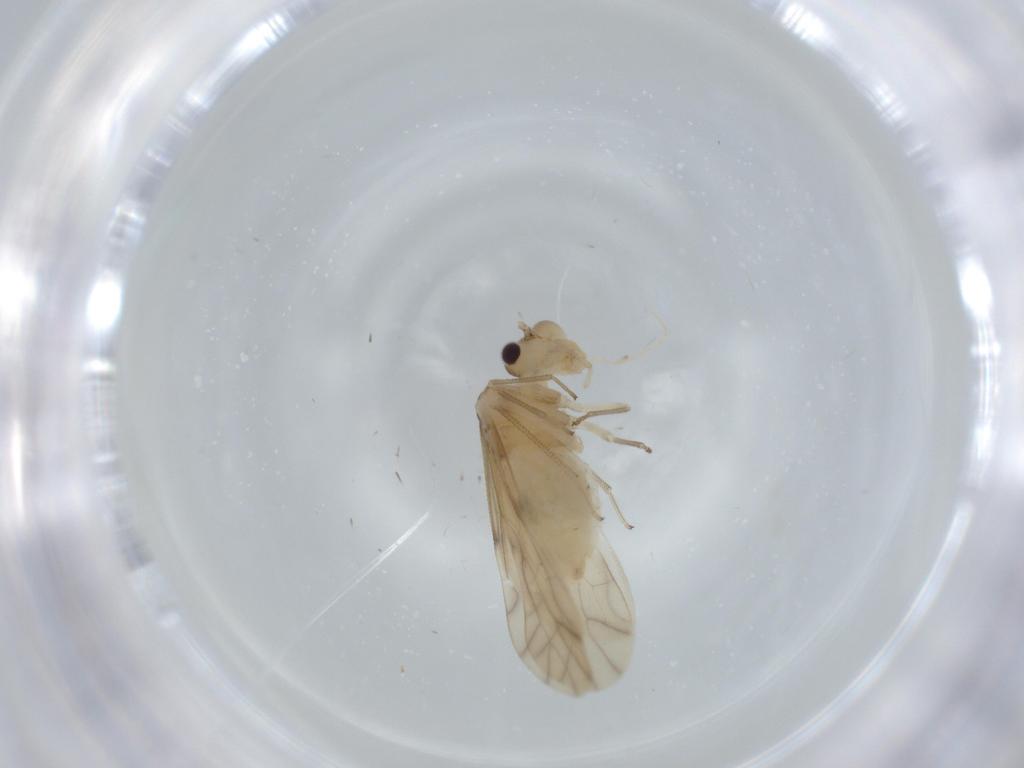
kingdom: Animalia
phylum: Arthropoda
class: Insecta
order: Psocodea
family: Caeciliusidae
